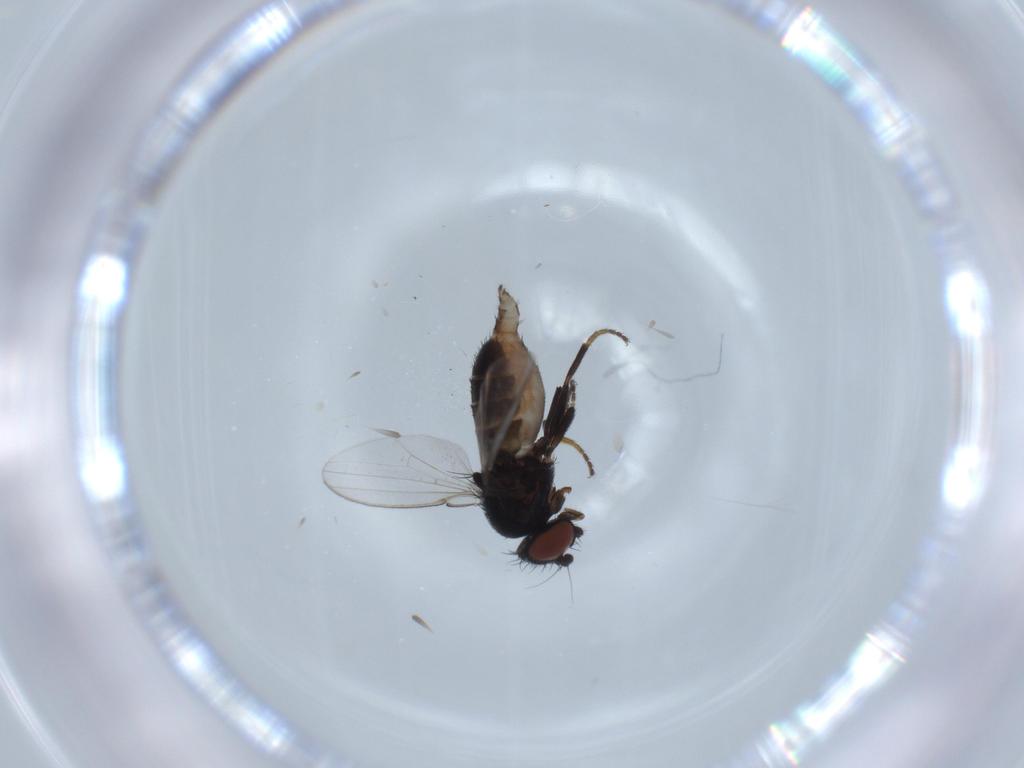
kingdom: Animalia
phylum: Arthropoda
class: Insecta
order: Diptera
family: Milichiidae
